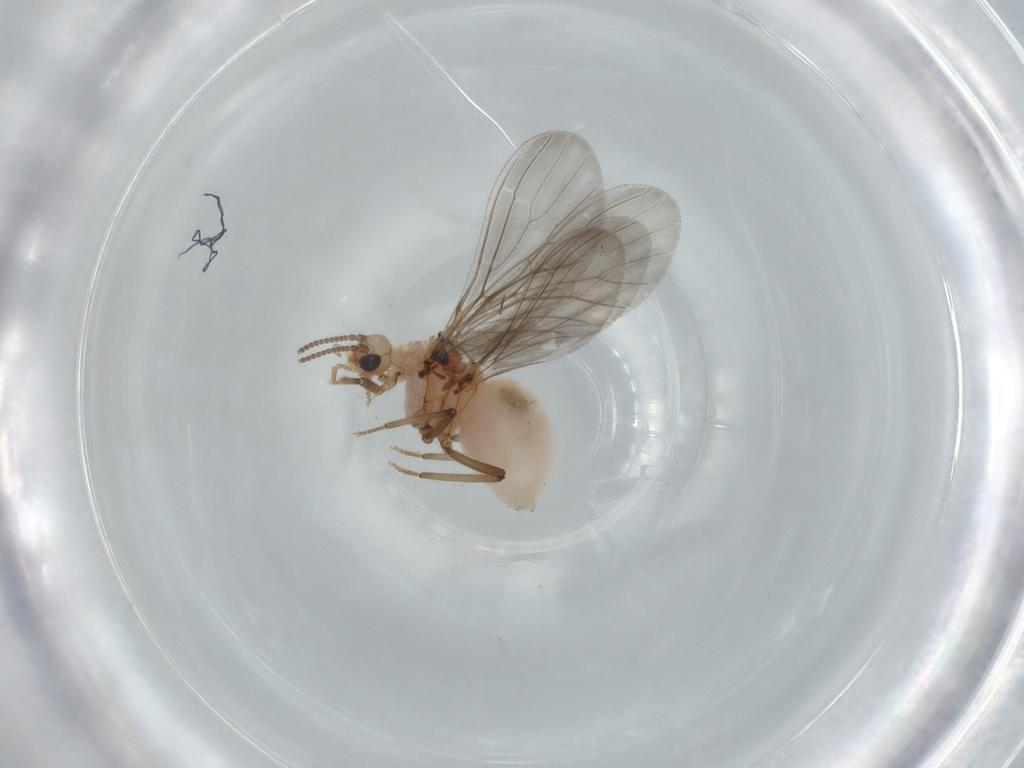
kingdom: Animalia
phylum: Arthropoda
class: Insecta
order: Neuroptera
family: Coniopterygidae
